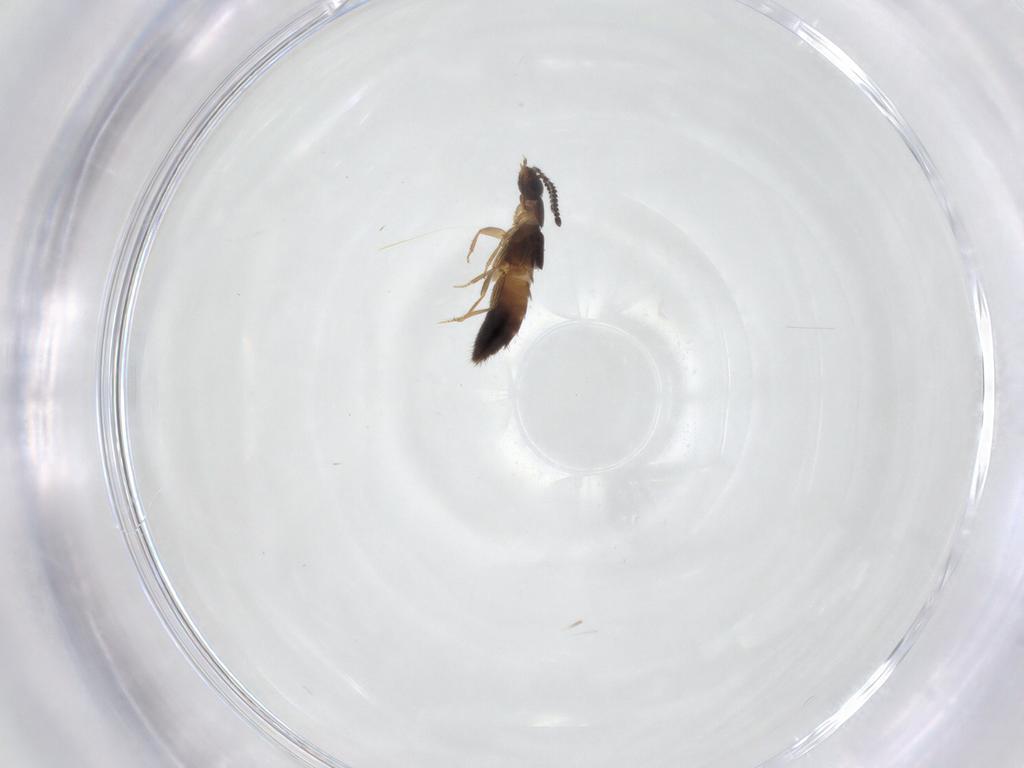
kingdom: Animalia
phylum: Arthropoda
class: Insecta
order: Coleoptera
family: Staphylinidae
